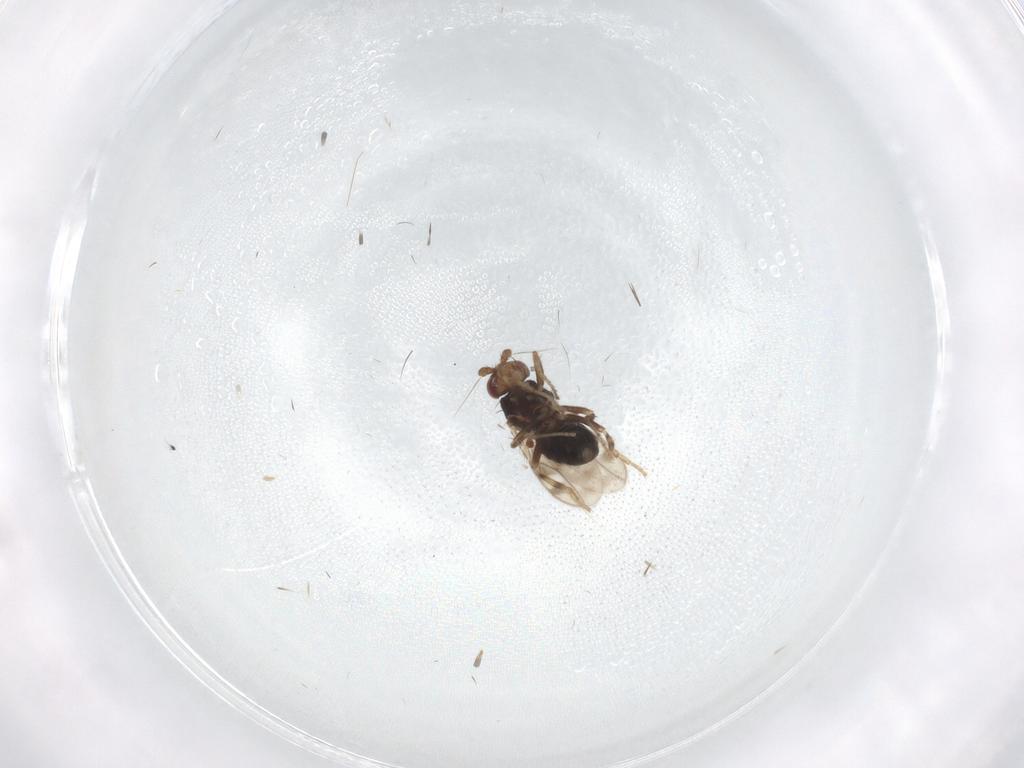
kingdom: Animalia
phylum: Arthropoda
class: Insecta
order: Diptera
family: Sphaeroceridae
